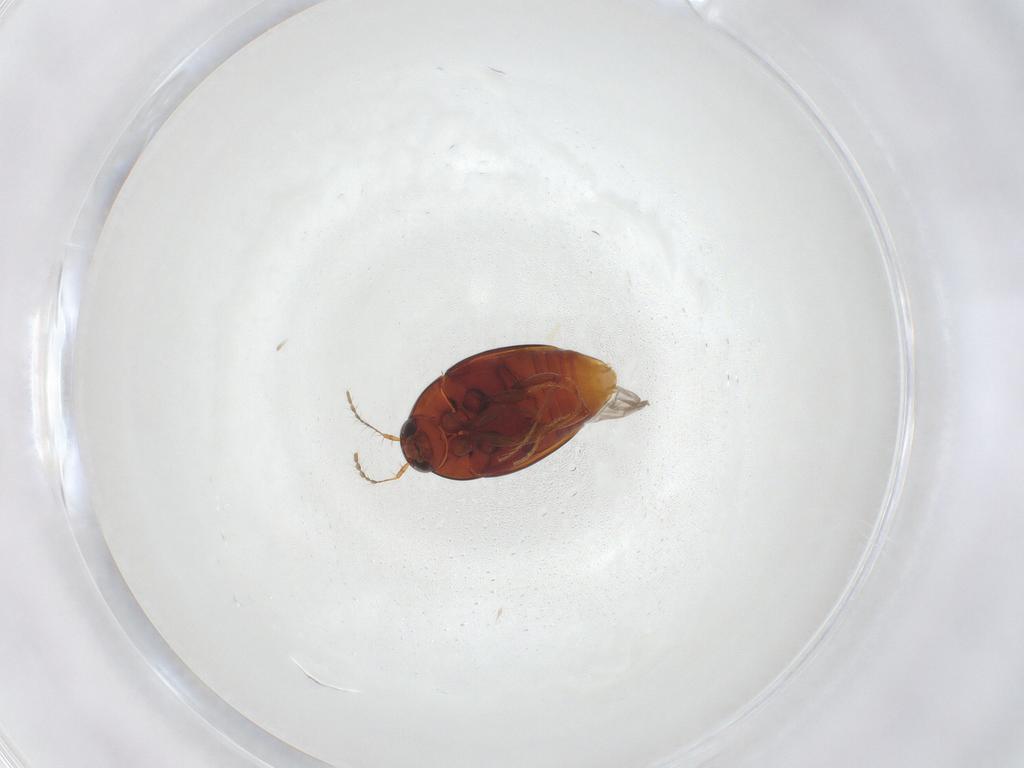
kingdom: Animalia
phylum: Arthropoda
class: Insecta
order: Coleoptera
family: Staphylinidae
